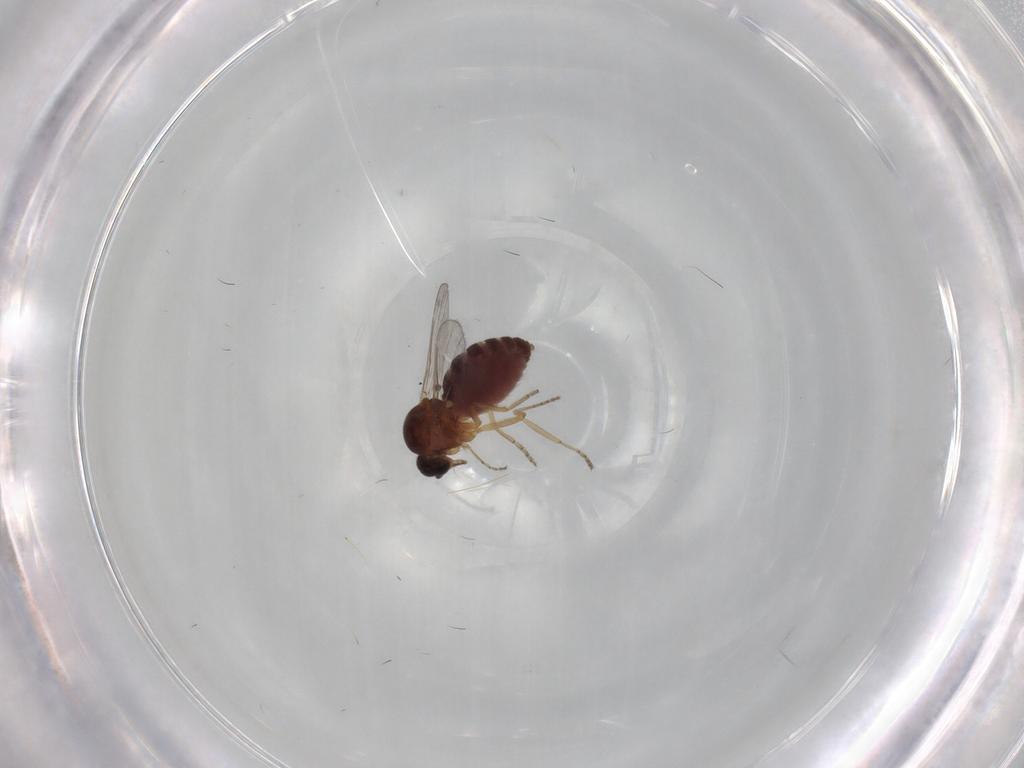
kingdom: Animalia
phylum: Arthropoda
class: Insecta
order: Diptera
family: Ceratopogonidae
